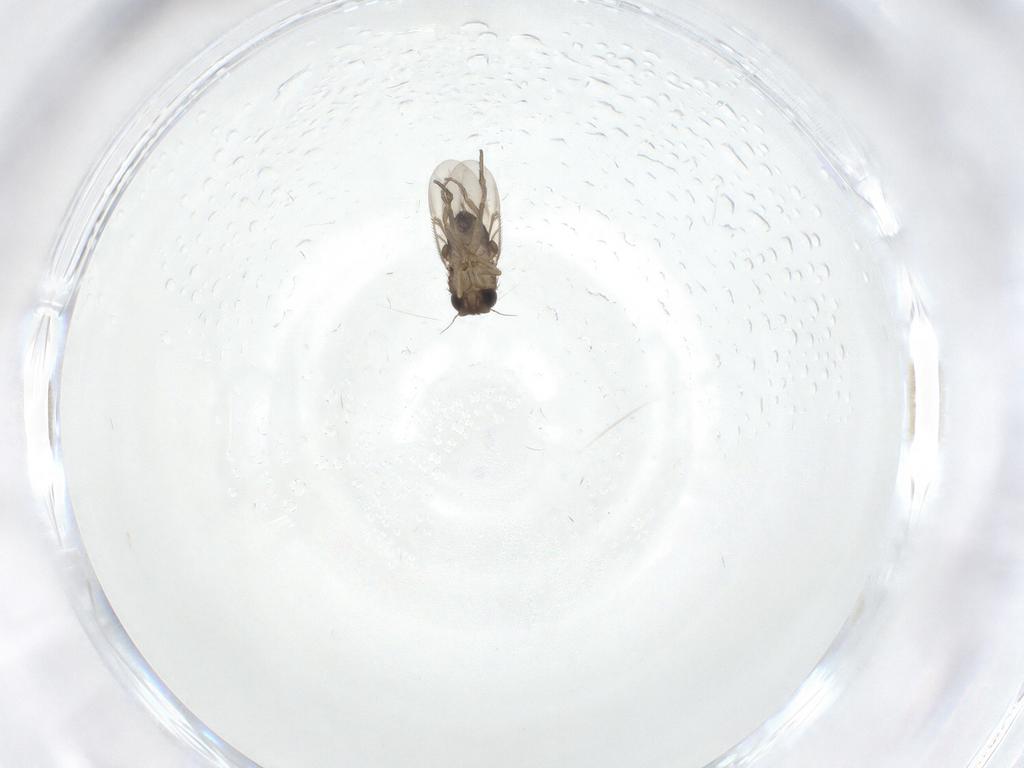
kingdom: Animalia
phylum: Arthropoda
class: Insecta
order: Diptera
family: Phoridae
